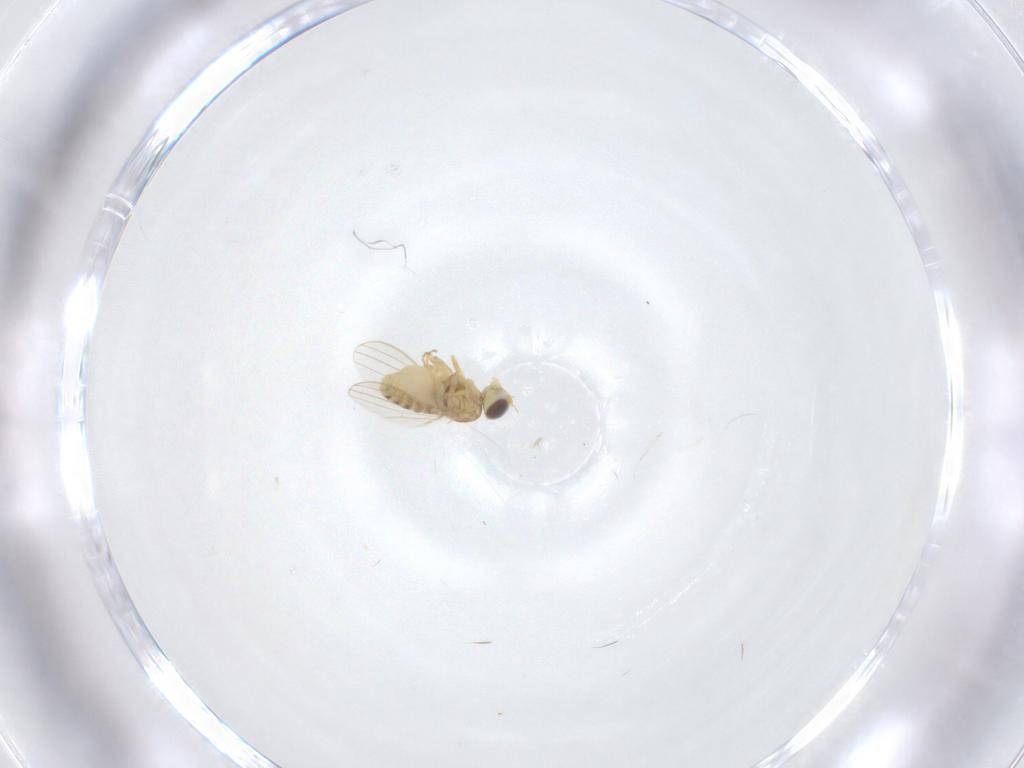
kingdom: Animalia
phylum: Arthropoda
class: Insecta
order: Diptera
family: Chyromyidae
